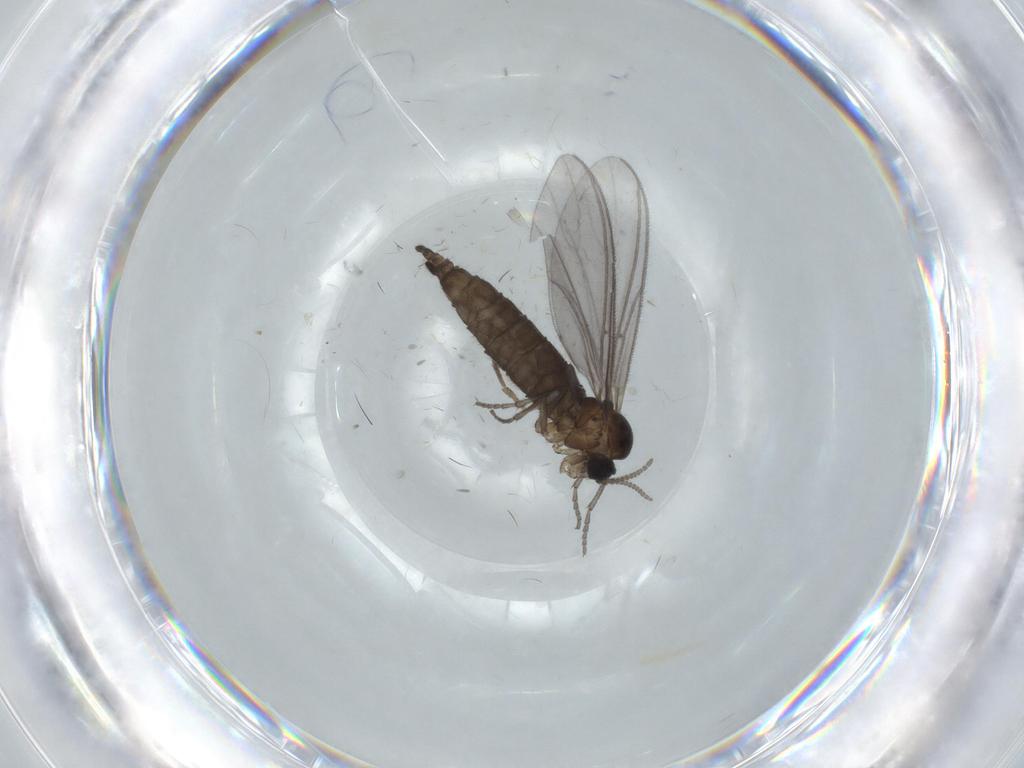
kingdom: Animalia
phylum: Arthropoda
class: Insecta
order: Diptera
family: Sciaridae
